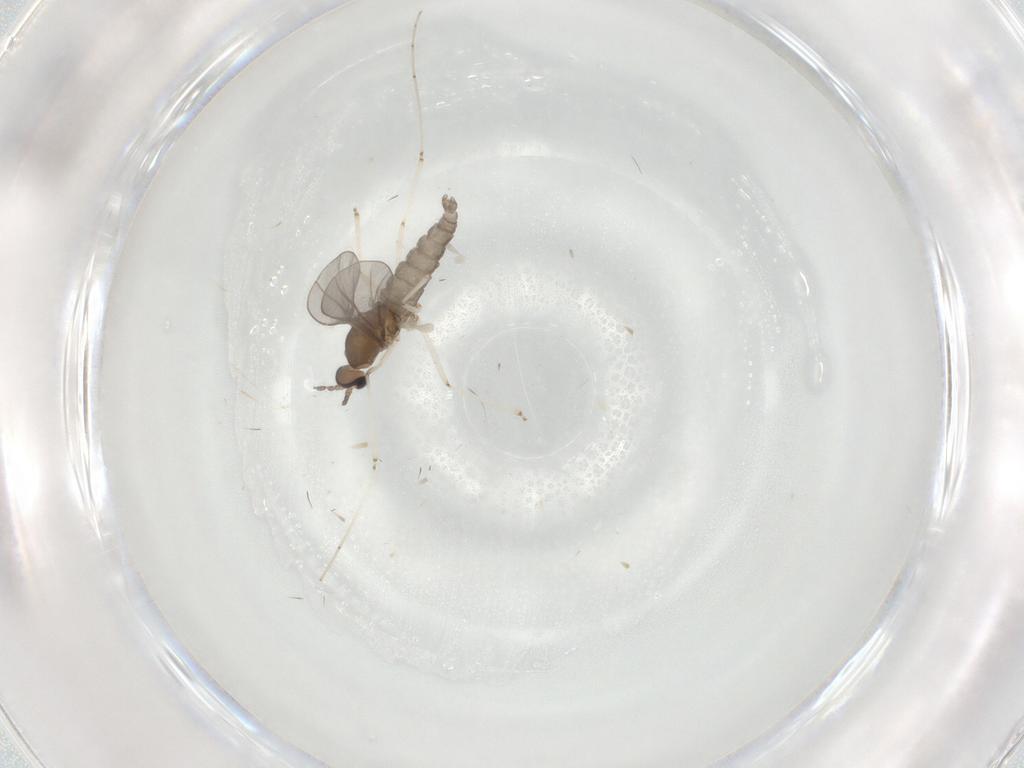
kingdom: Animalia
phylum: Arthropoda
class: Insecta
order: Diptera
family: Cecidomyiidae
